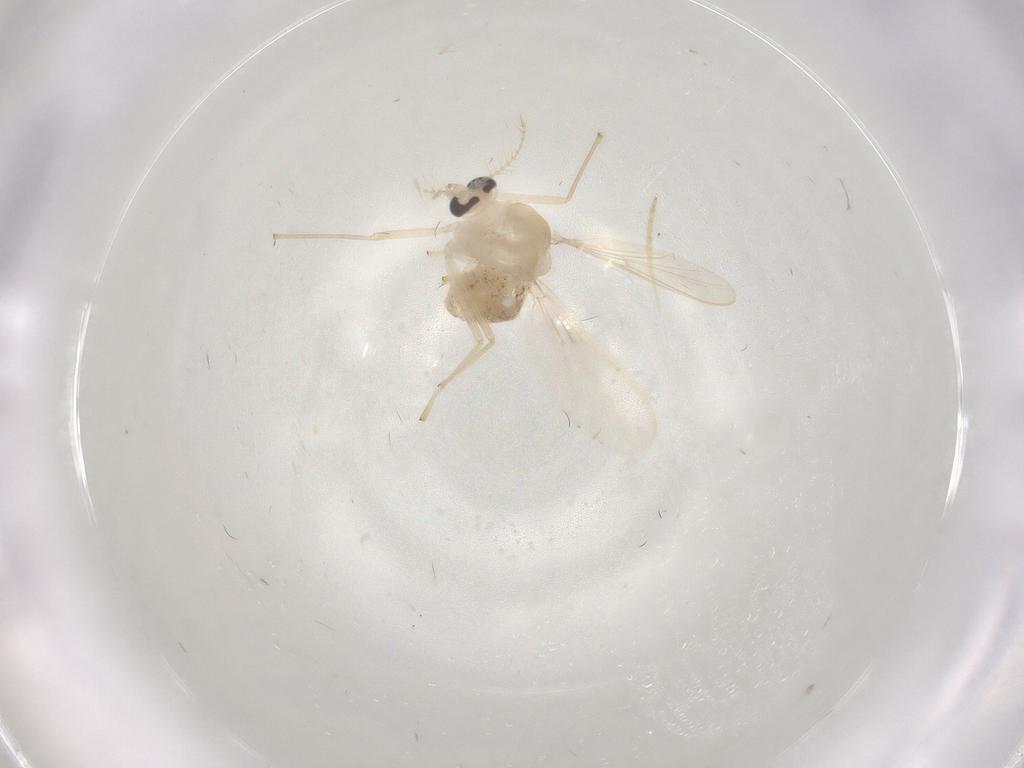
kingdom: Animalia
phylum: Arthropoda
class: Insecta
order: Diptera
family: Chironomidae
